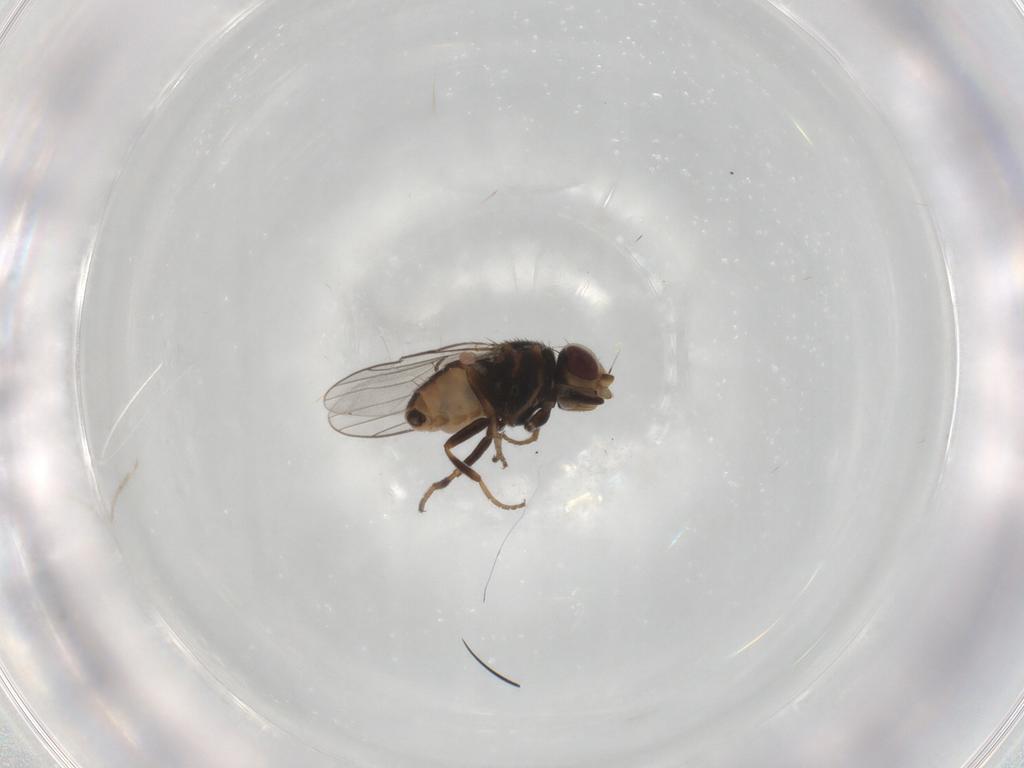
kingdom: Animalia
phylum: Arthropoda
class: Insecta
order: Diptera
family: Chloropidae
